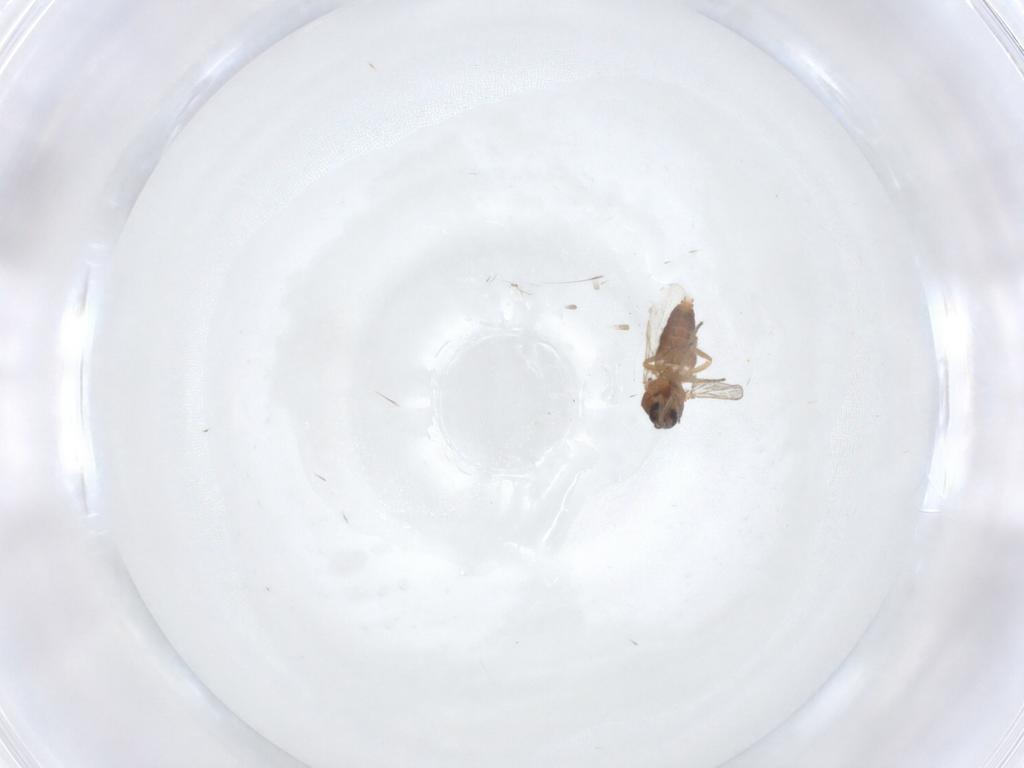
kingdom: Animalia
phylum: Arthropoda
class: Insecta
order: Diptera
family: Ceratopogonidae
